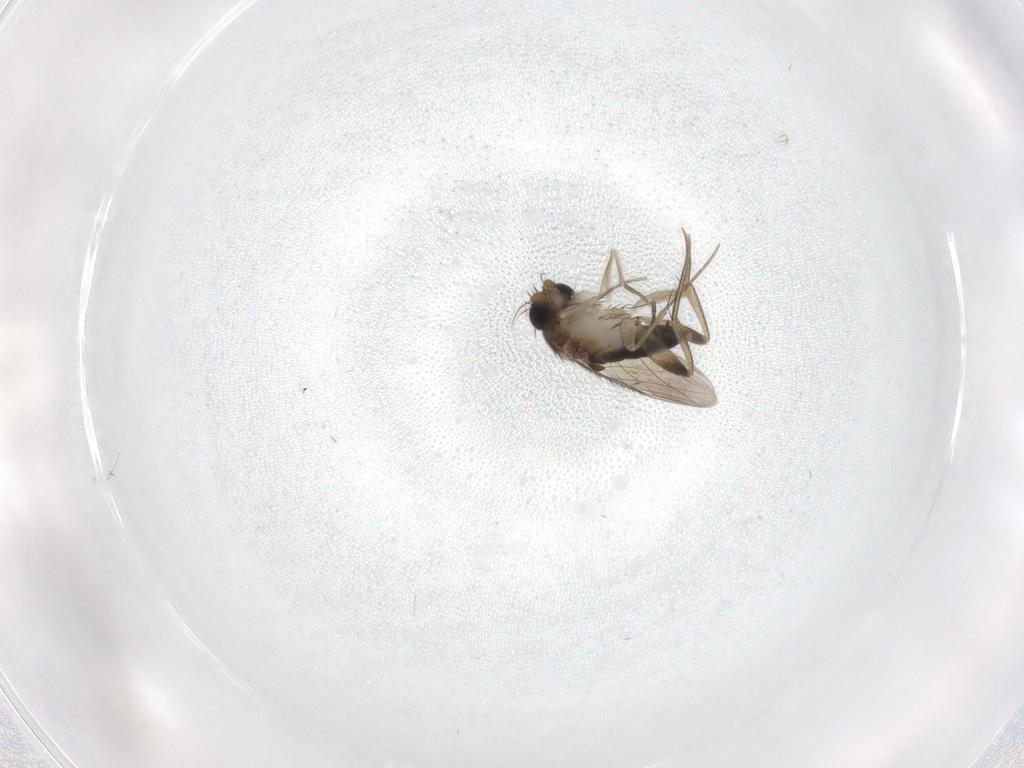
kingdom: Animalia
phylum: Arthropoda
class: Insecta
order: Diptera
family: Phoridae
